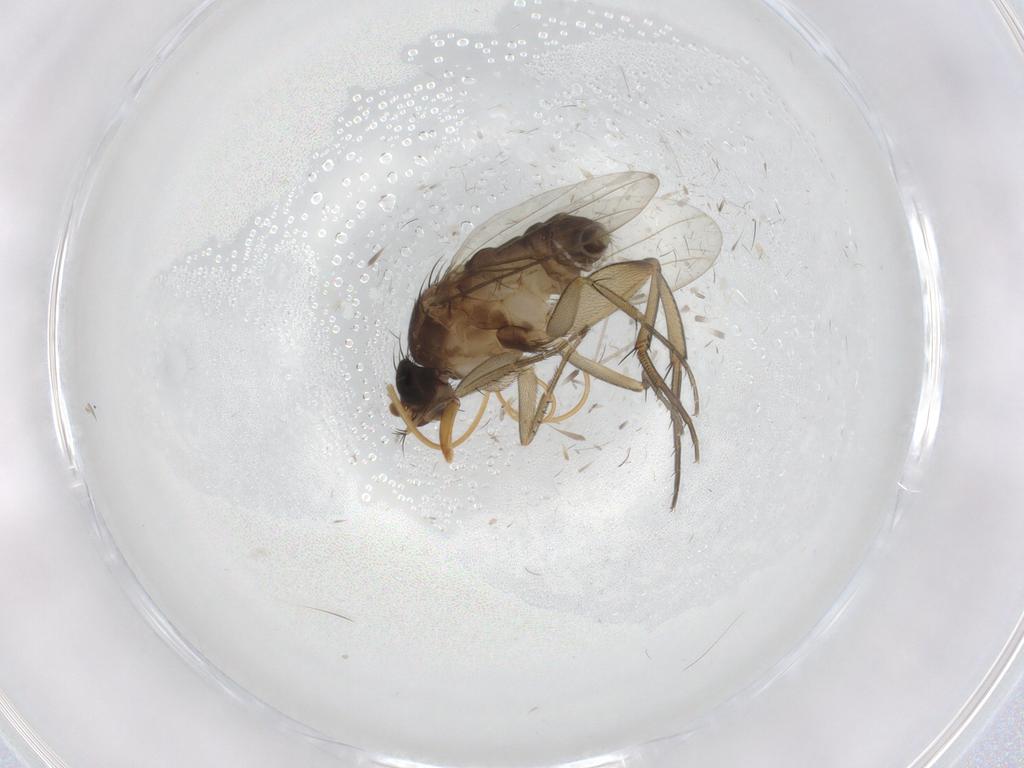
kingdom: Animalia
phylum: Arthropoda
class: Insecta
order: Diptera
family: Phoridae
